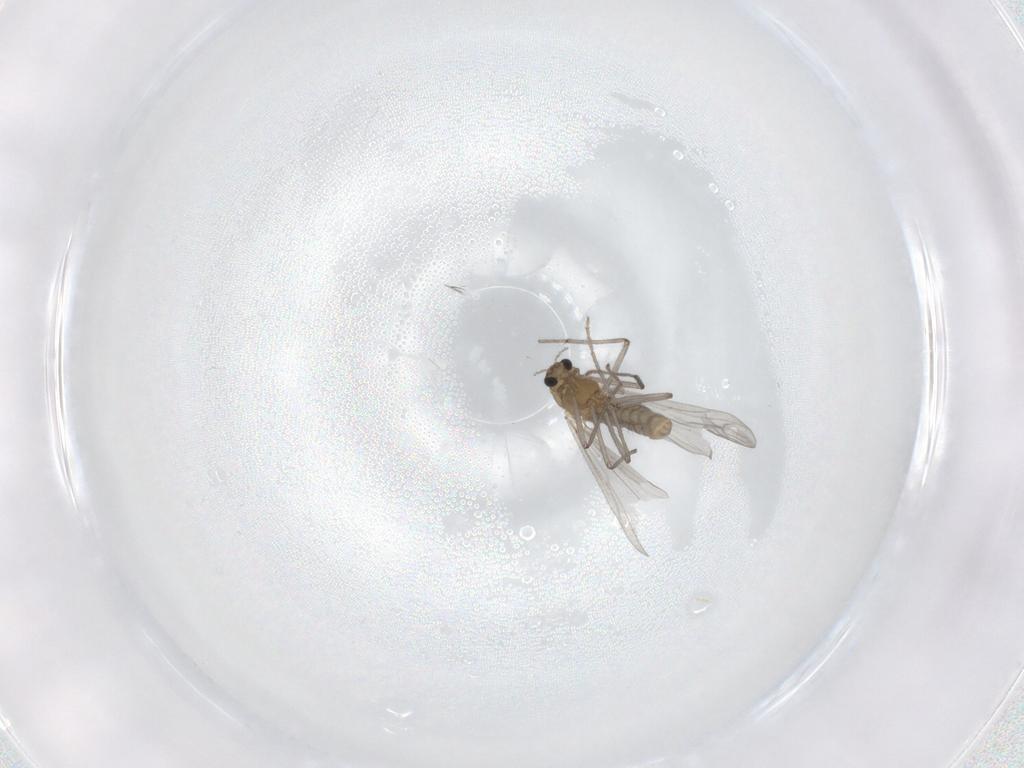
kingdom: Animalia
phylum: Arthropoda
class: Insecta
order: Diptera
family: Chironomidae
